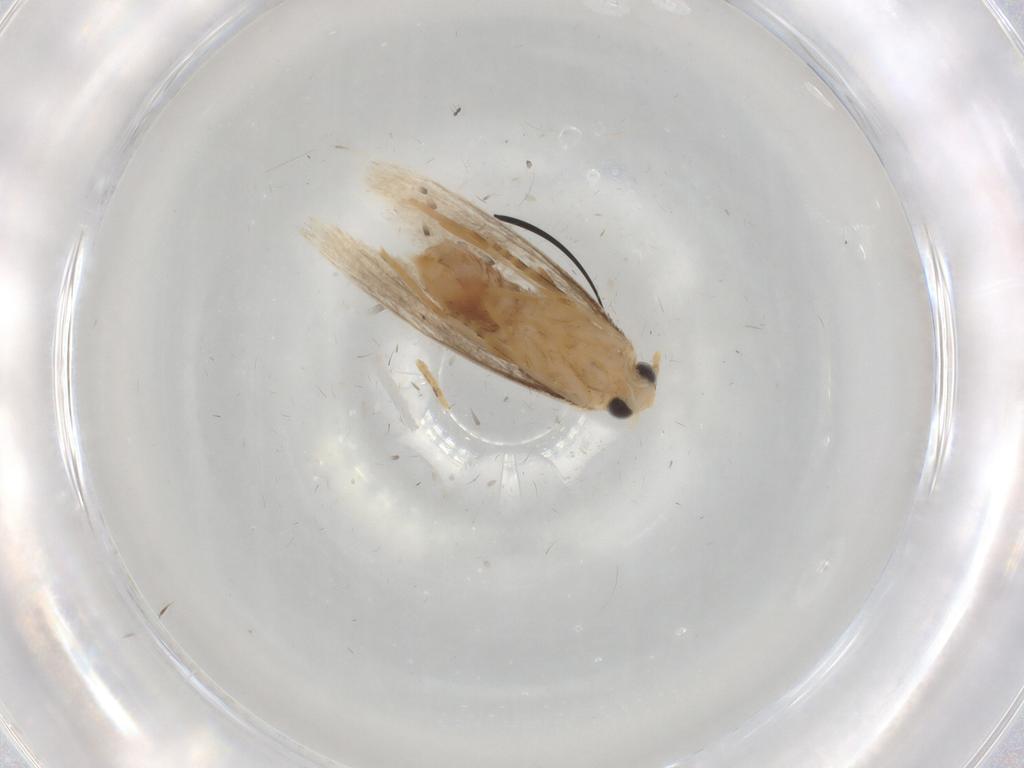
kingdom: Animalia
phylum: Arthropoda
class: Insecta
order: Lepidoptera
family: Dryadaulidae
